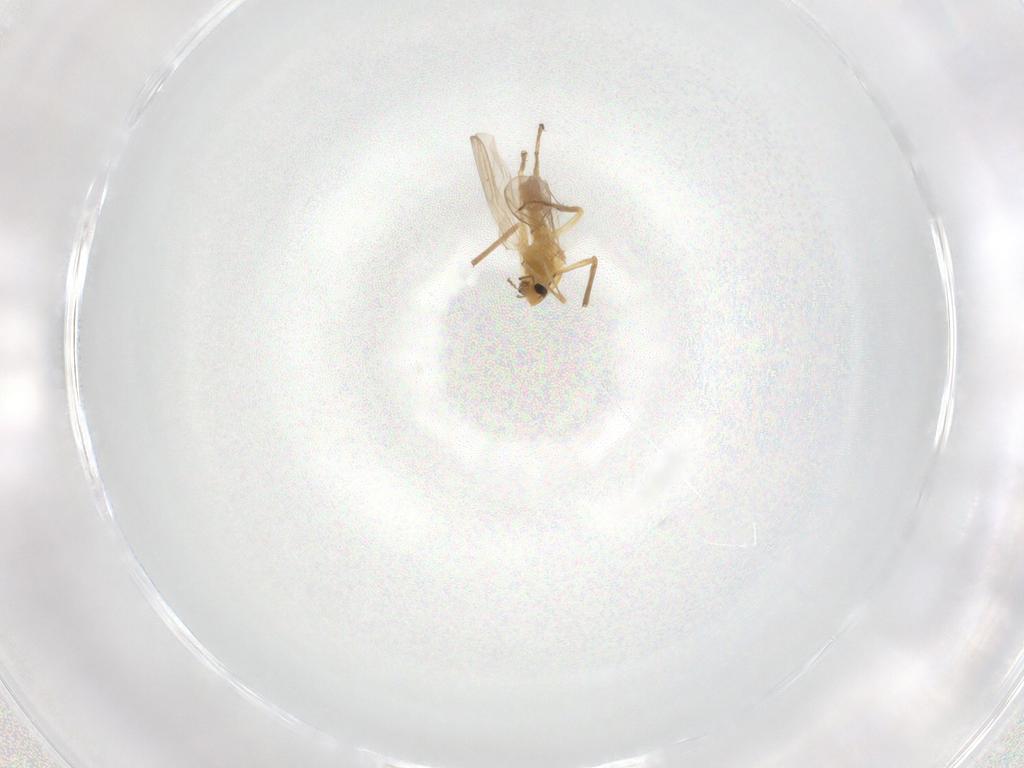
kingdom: Animalia
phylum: Arthropoda
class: Insecta
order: Diptera
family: Chironomidae
